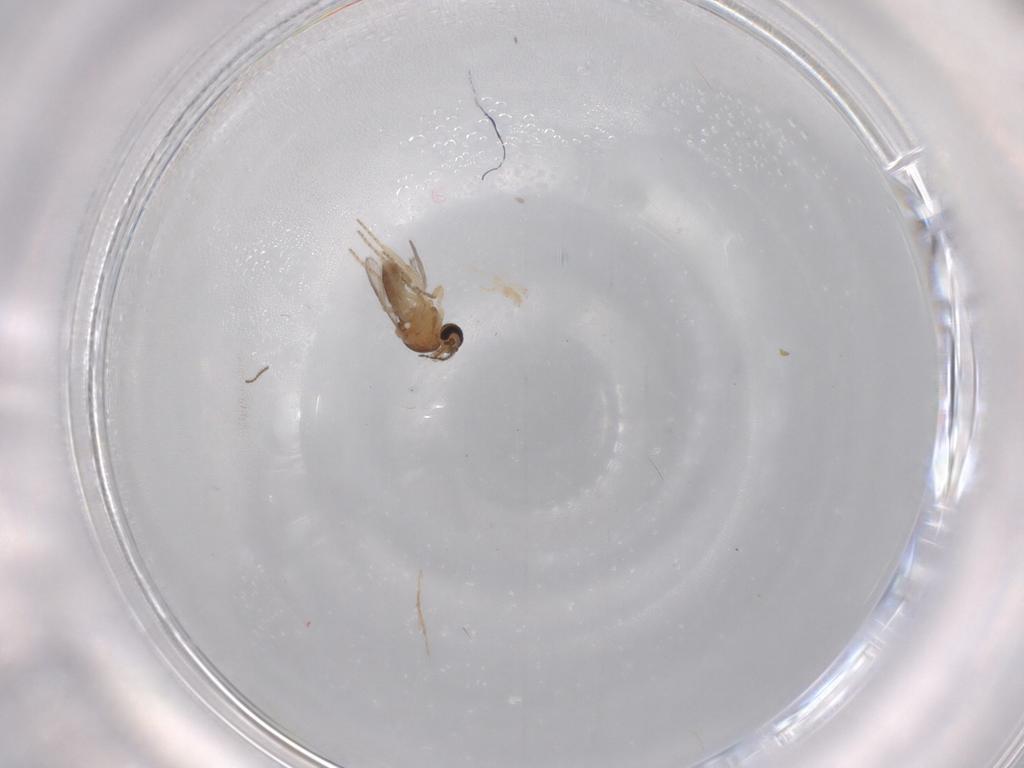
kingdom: Animalia
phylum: Arthropoda
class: Insecta
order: Diptera
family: Ceratopogonidae
